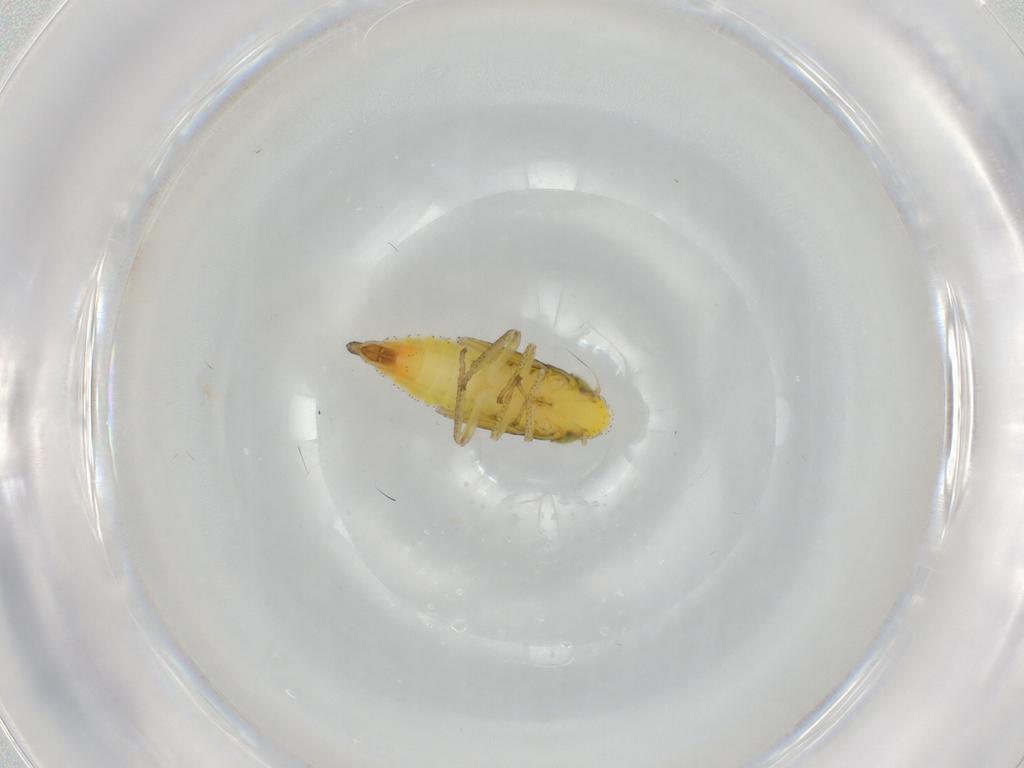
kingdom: Animalia
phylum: Arthropoda
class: Insecta
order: Hemiptera
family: Cicadellidae
